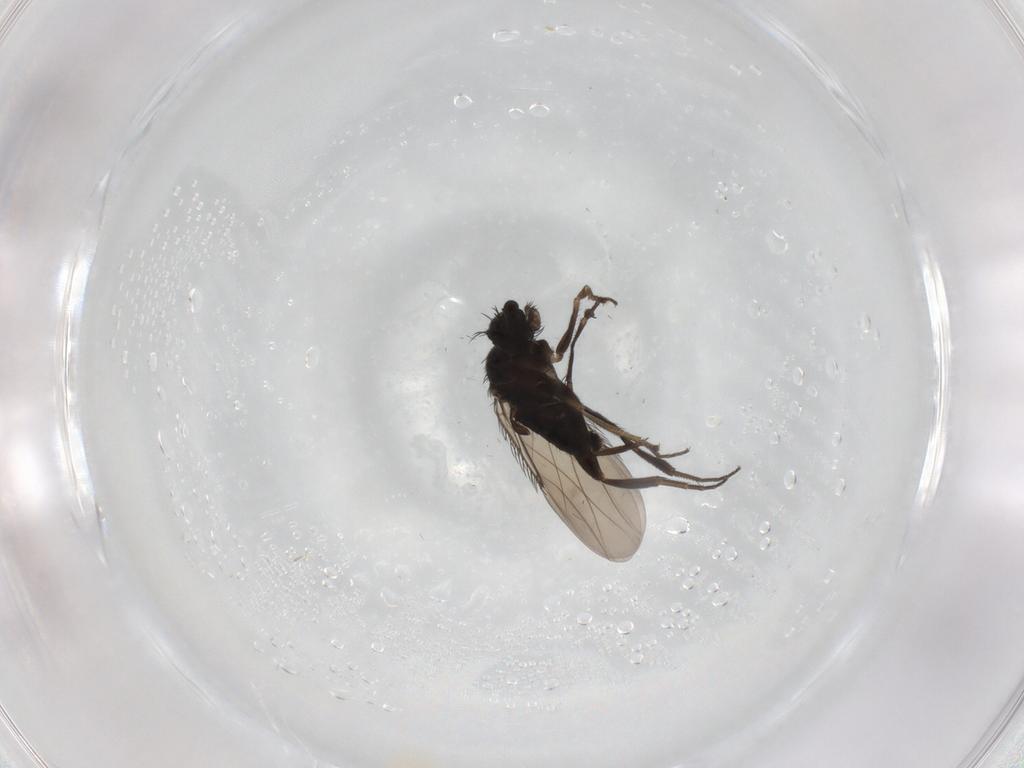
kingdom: Animalia
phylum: Arthropoda
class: Insecta
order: Diptera
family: Phoridae
